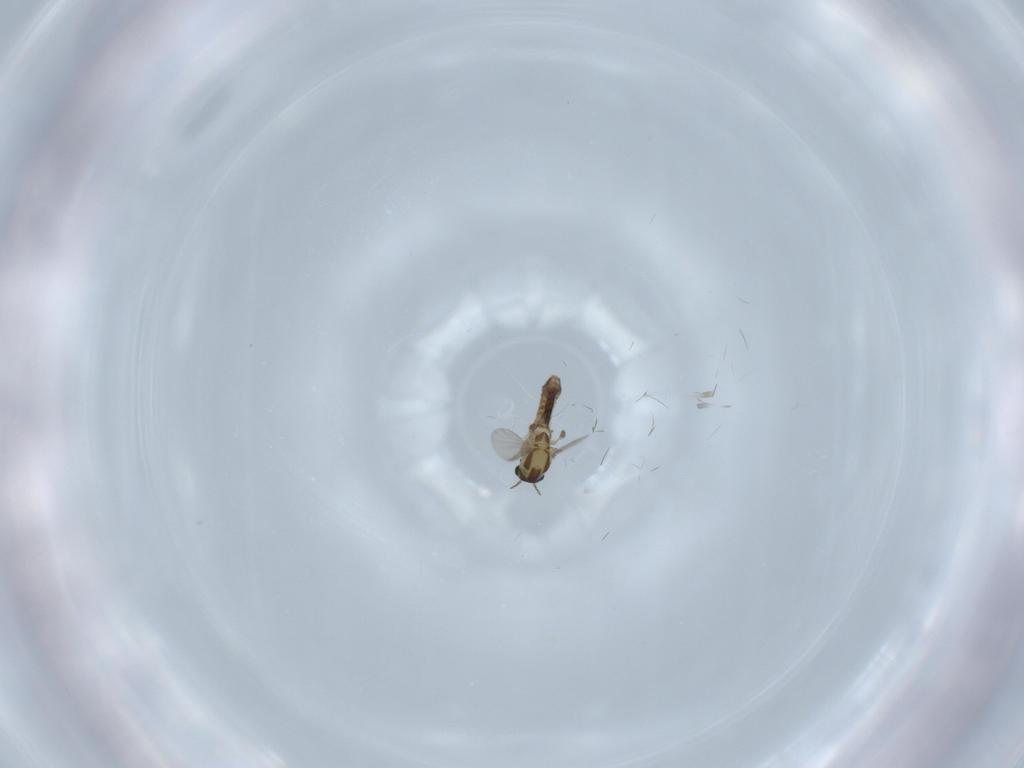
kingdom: Animalia
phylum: Arthropoda
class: Insecta
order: Diptera
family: Chironomidae
